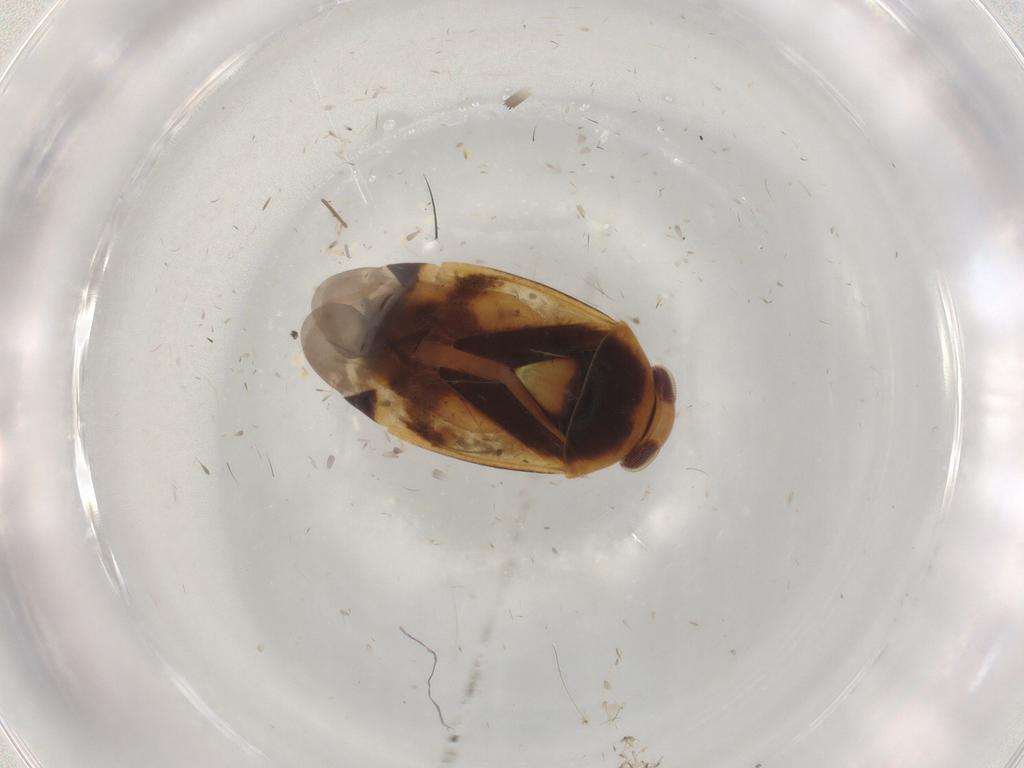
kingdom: Animalia
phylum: Arthropoda
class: Insecta
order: Hemiptera
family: Miridae
